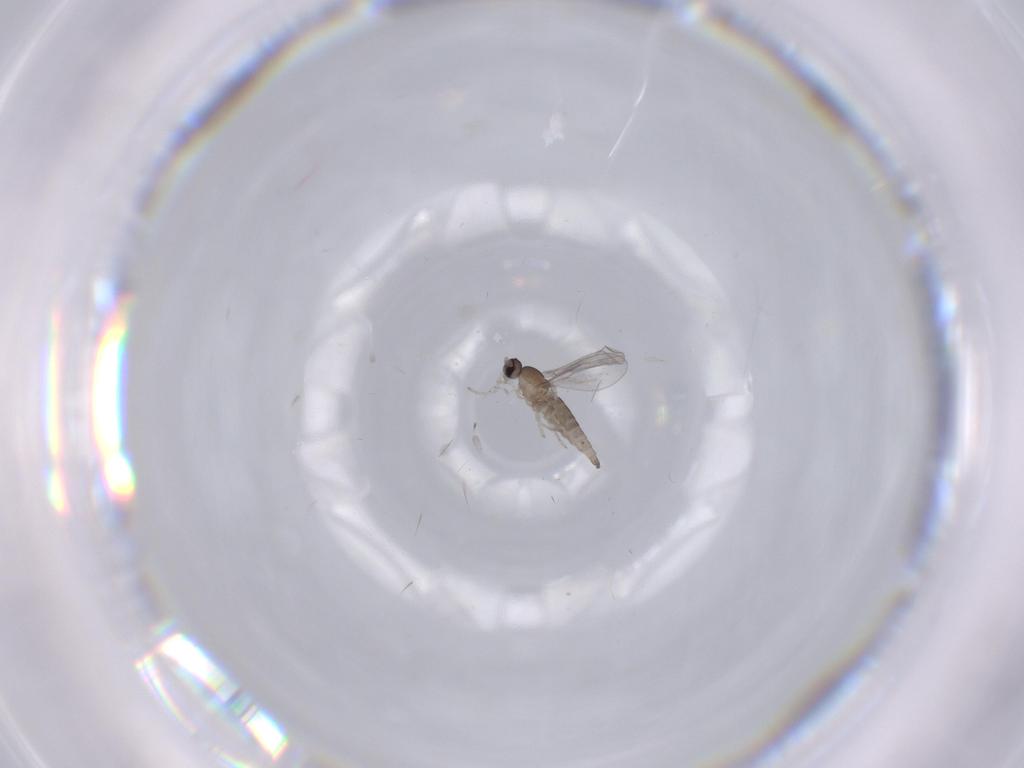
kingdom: Animalia
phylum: Arthropoda
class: Insecta
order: Diptera
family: Cecidomyiidae
